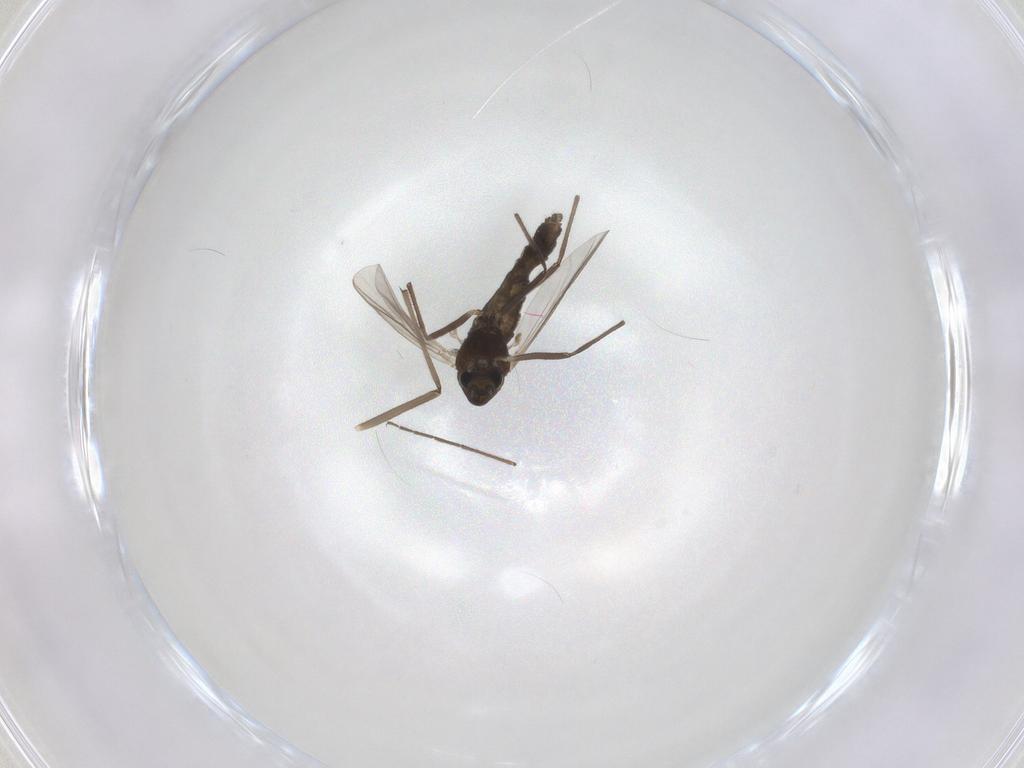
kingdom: Animalia
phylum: Arthropoda
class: Insecta
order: Diptera
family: Chironomidae
